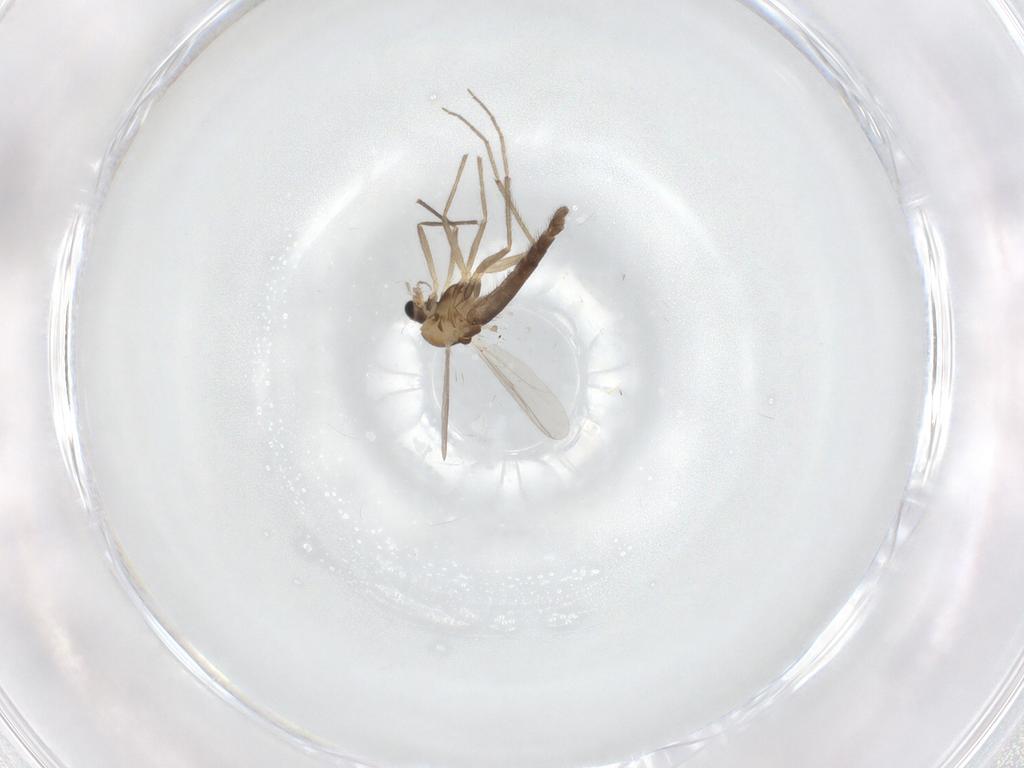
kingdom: Animalia
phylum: Arthropoda
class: Insecta
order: Diptera
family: Chironomidae
